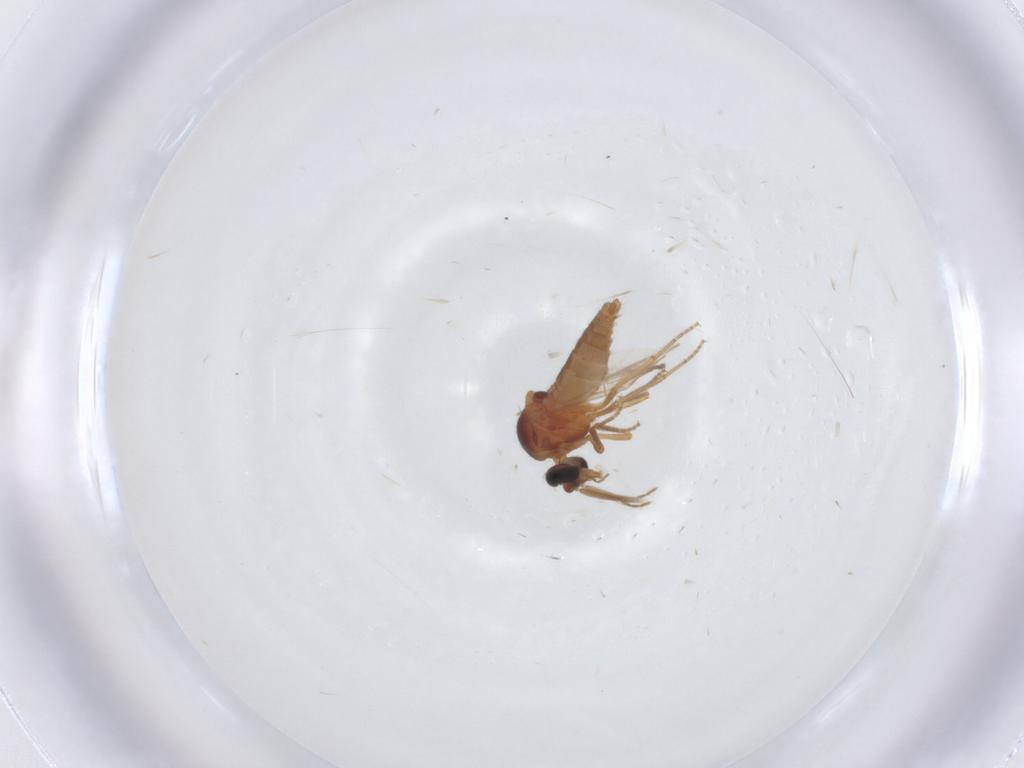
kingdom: Animalia
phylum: Arthropoda
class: Insecta
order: Diptera
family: Ceratopogonidae
